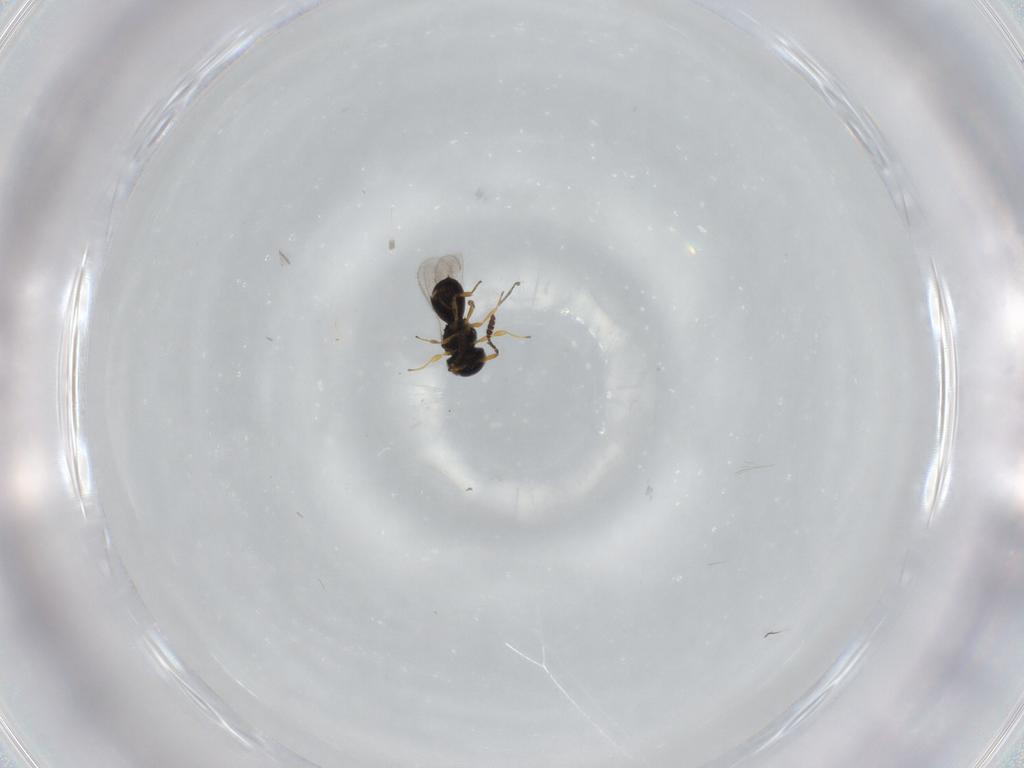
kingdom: Animalia
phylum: Arthropoda
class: Insecta
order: Hymenoptera
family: Scelionidae
